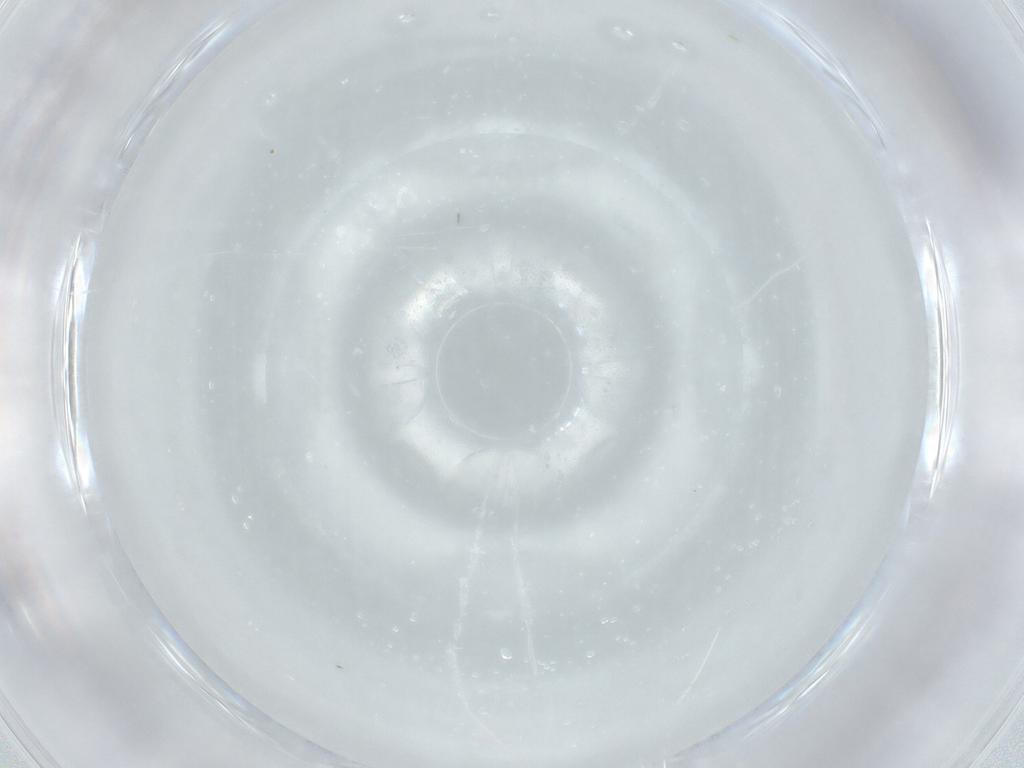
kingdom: Animalia
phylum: Arthropoda
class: Insecta
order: Diptera
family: Cecidomyiidae
